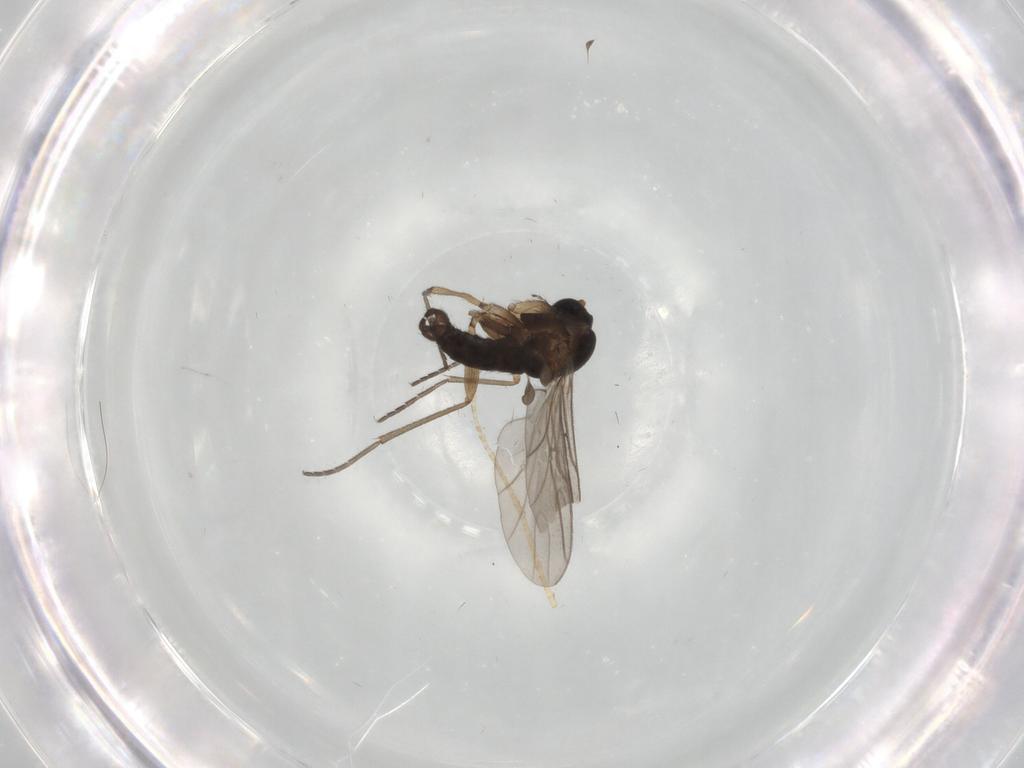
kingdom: Animalia
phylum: Arthropoda
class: Insecta
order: Diptera
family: Sciaridae
